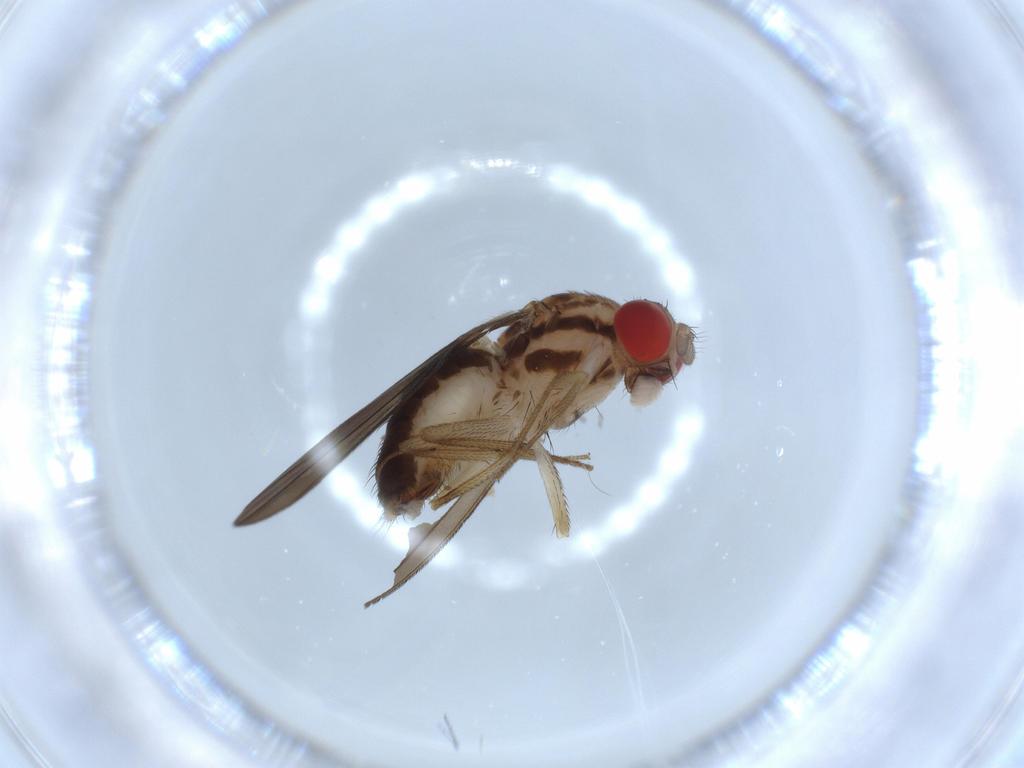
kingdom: Animalia
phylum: Arthropoda
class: Insecta
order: Diptera
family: Drosophilidae
